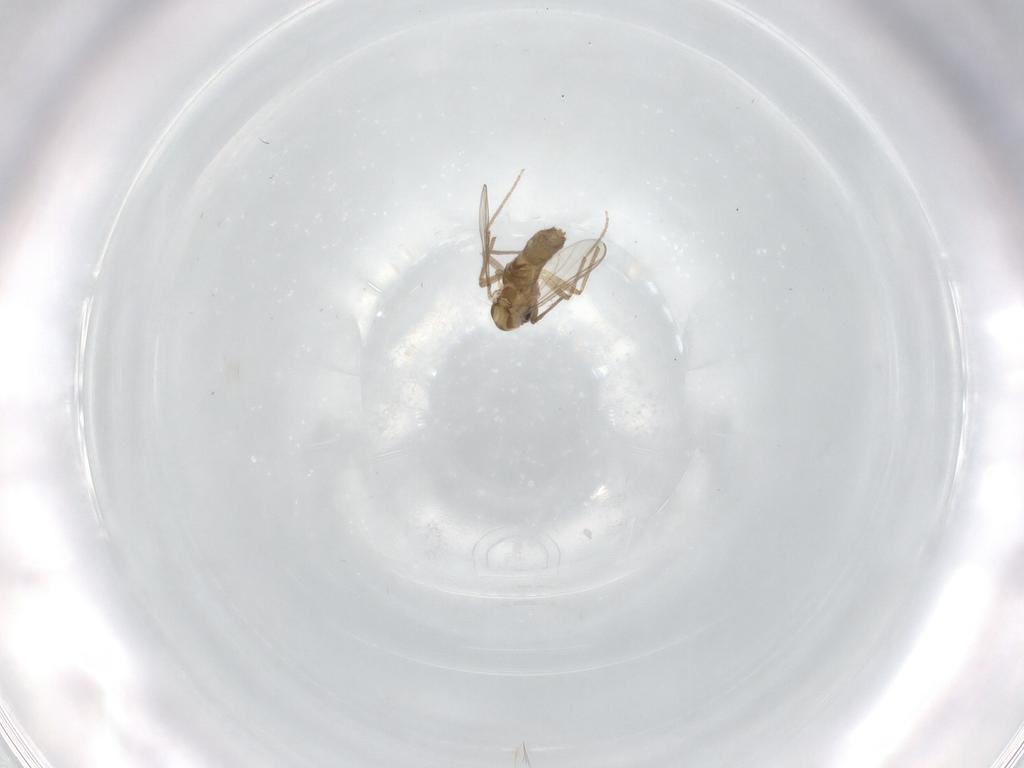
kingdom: Animalia
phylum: Arthropoda
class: Insecta
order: Diptera
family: Chironomidae
